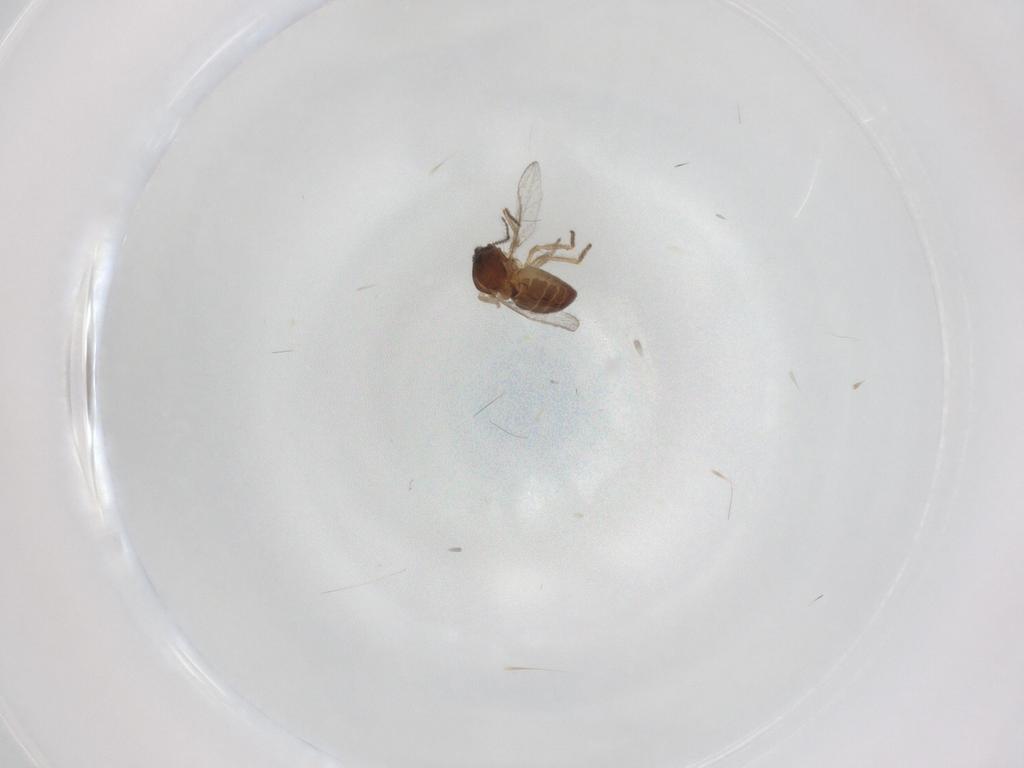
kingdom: Animalia
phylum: Arthropoda
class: Insecta
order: Diptera
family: Ceratopogonidae
